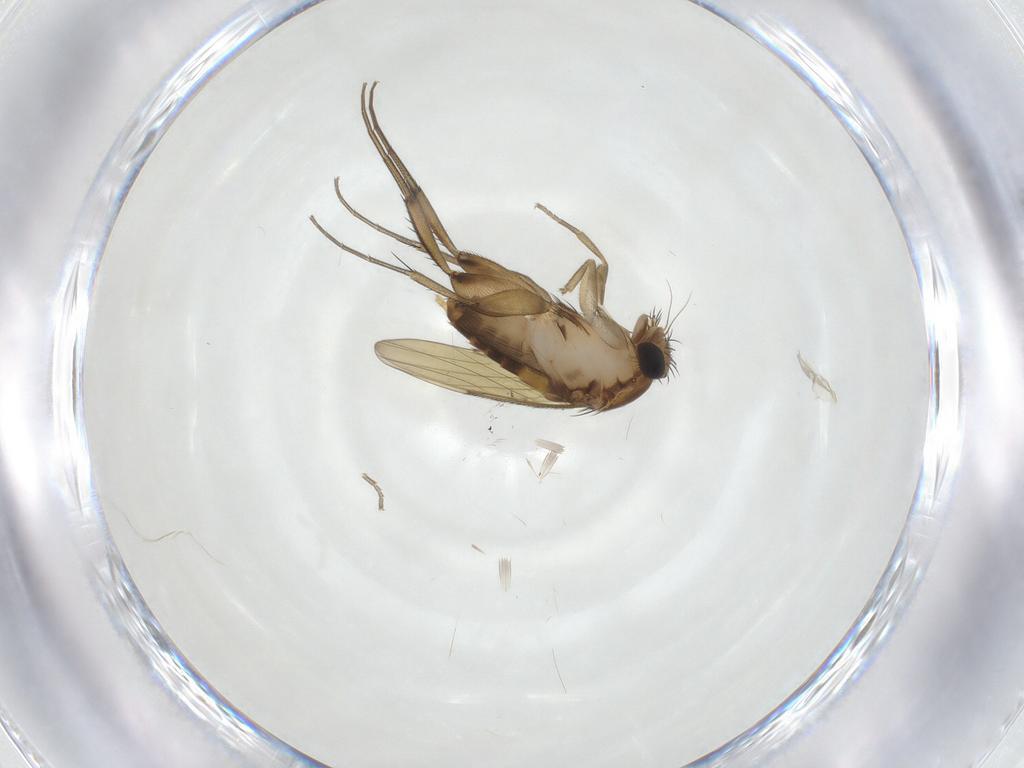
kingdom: Animalia
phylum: Arthropoda
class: Insecta
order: Diptera
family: Phoridae
